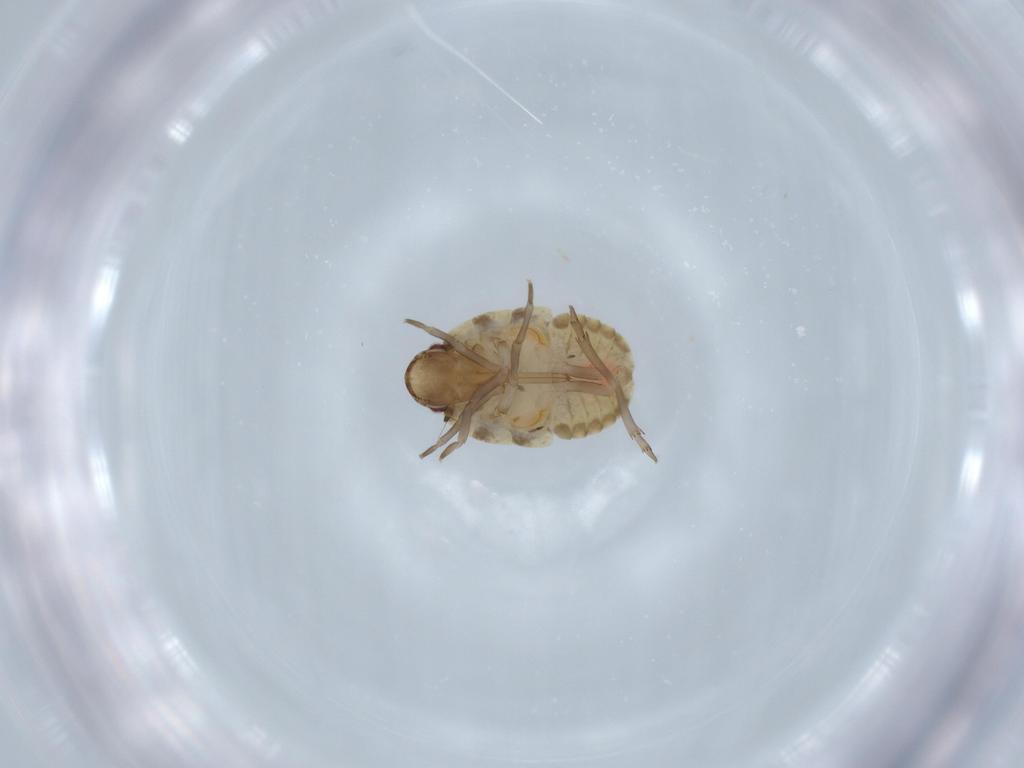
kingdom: Animalia
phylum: Arthropoda
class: Insecta
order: Hemiptera
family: Flatidae
